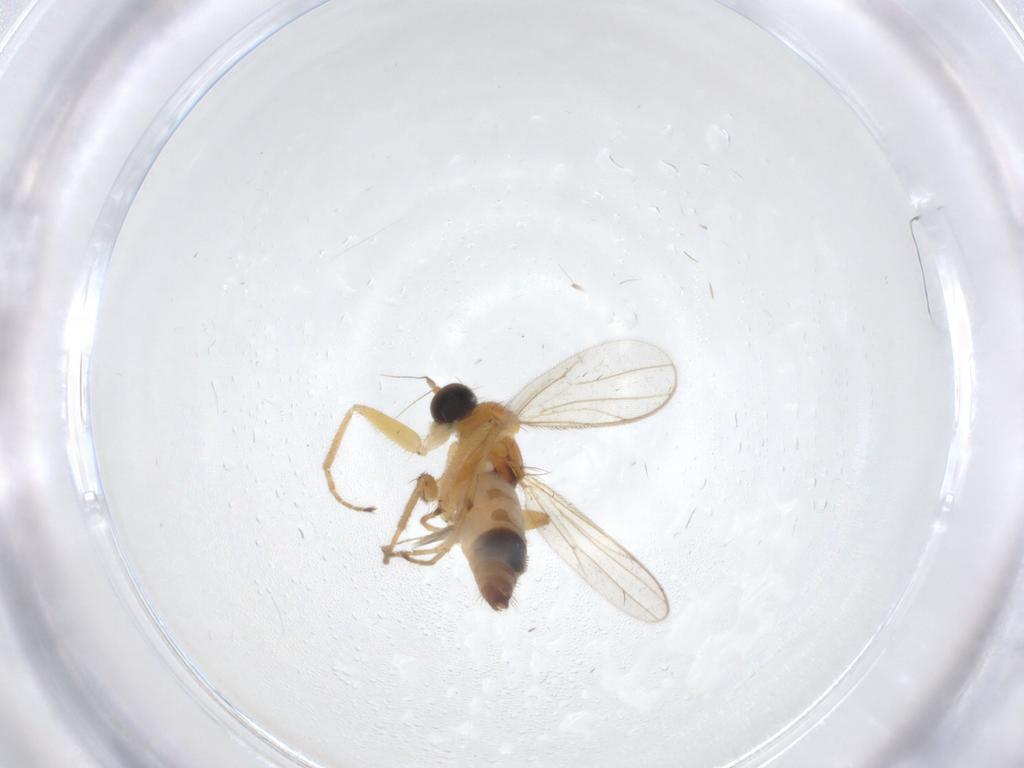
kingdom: Animalia
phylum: Arthropoda
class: Insecta
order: Diptera
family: Hybotidae
